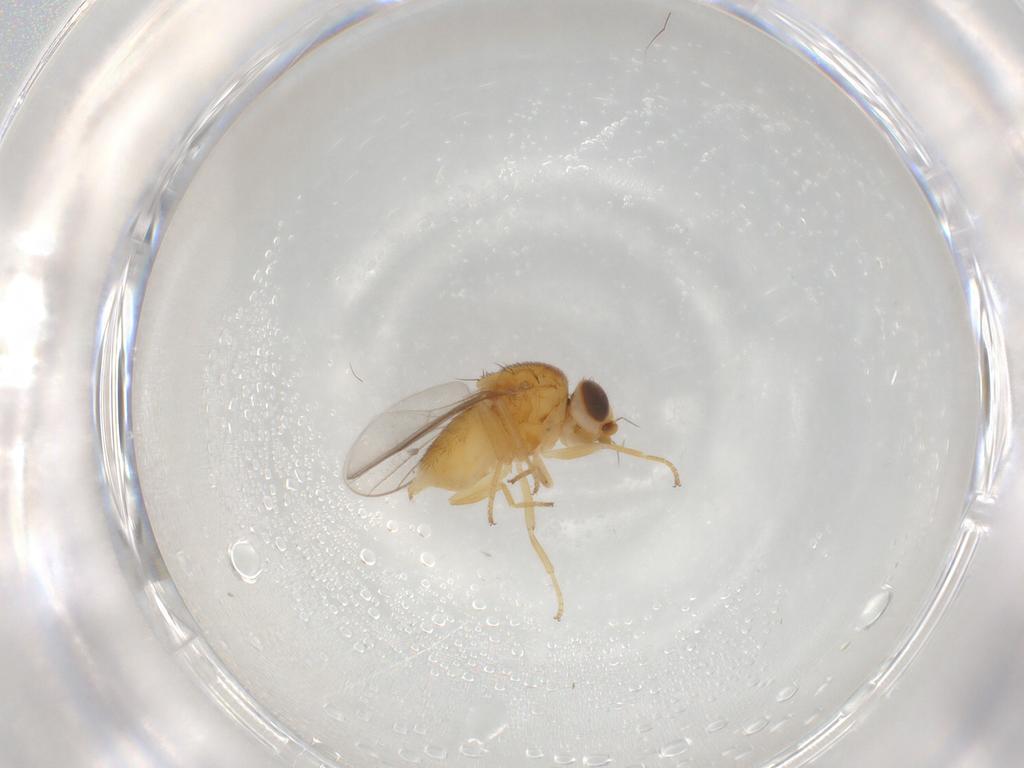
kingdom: Animalia
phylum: Arthropoda
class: Insecta
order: Diptera
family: Chloropidae
